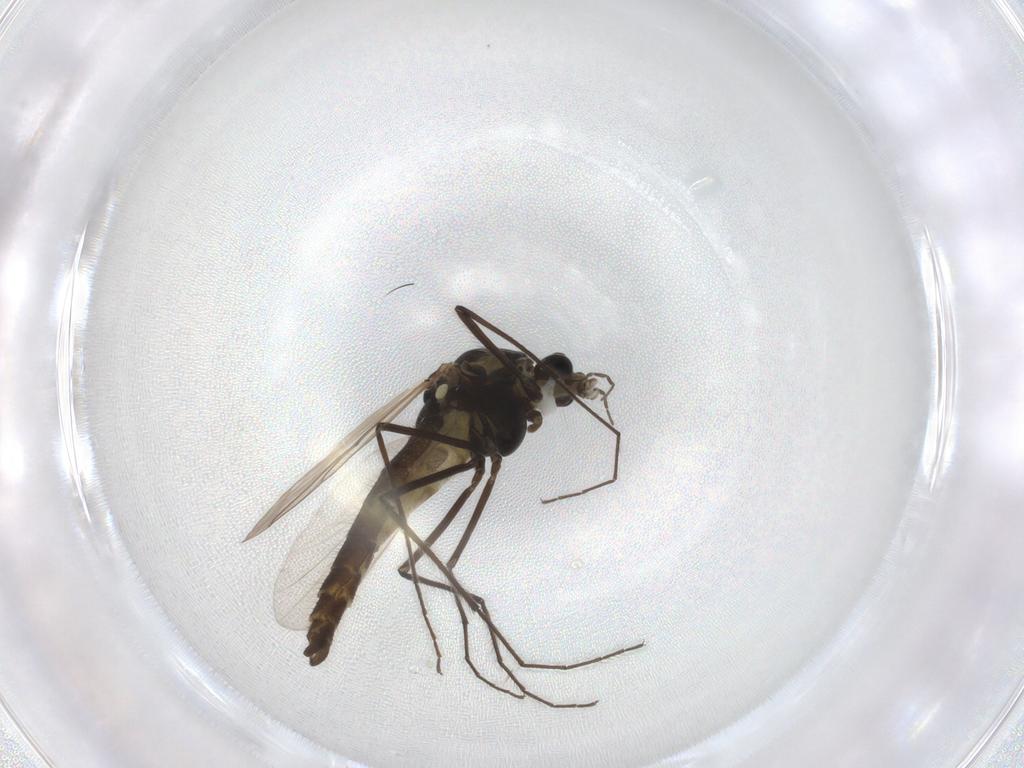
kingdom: Animalia
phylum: Arthropoda
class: Insecta
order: Diptera
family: Chironomidae
